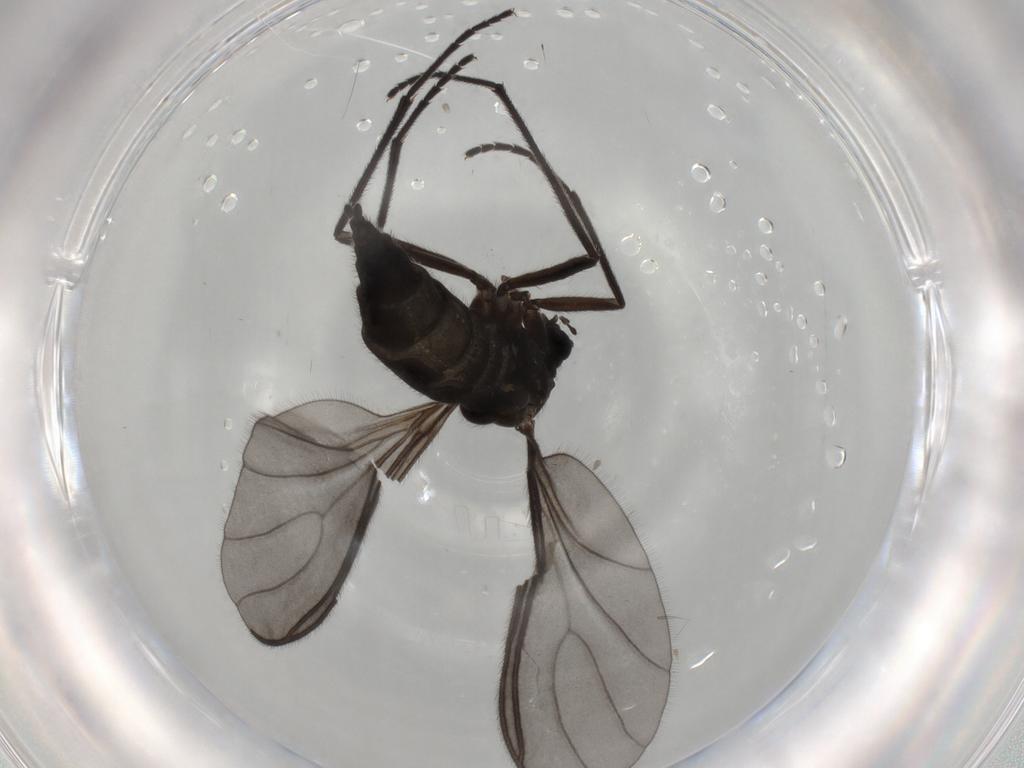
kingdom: Animalia
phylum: Arthropoda
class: Insecta
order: Diptera
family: Sciaridae
